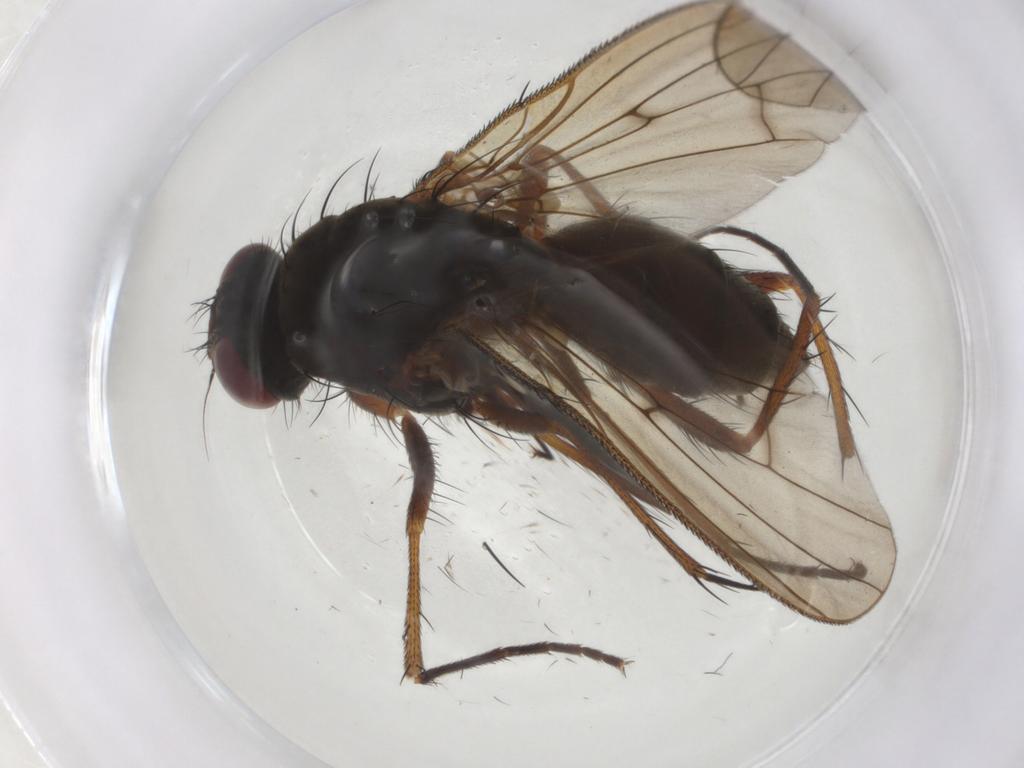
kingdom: Animalia
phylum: Arthropoda
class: Insecta
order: Diptera
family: Anthomyiidae
